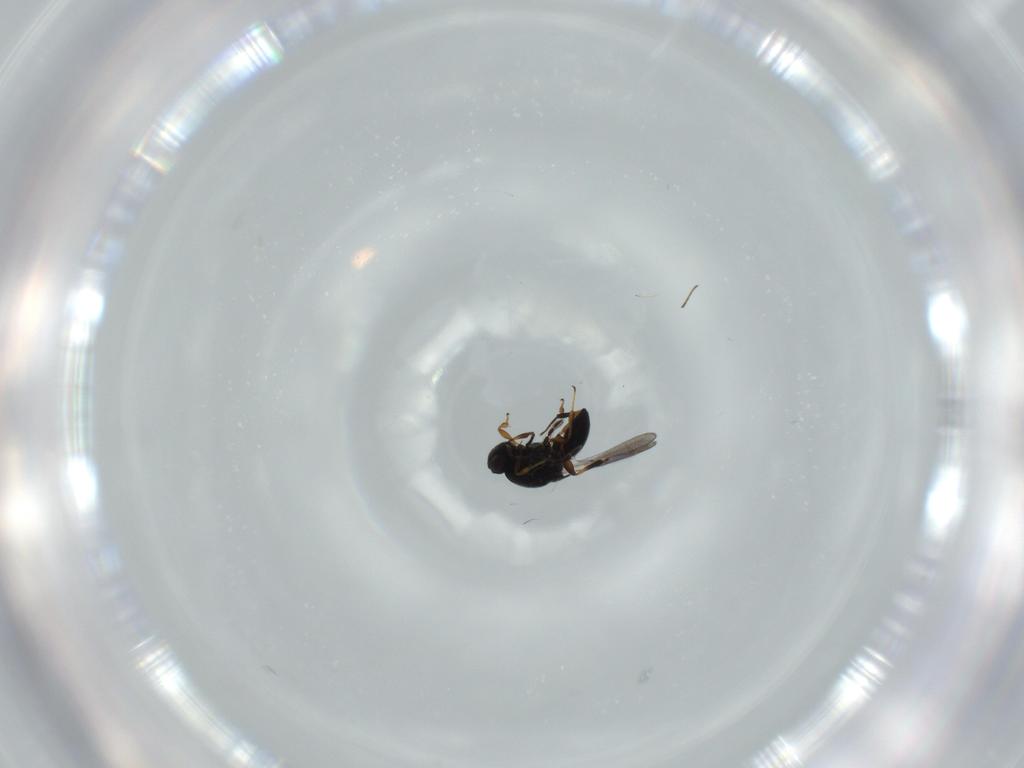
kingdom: Animalia
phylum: Arthropoda
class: Insecta
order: Hymenoptera
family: Platygastridae
